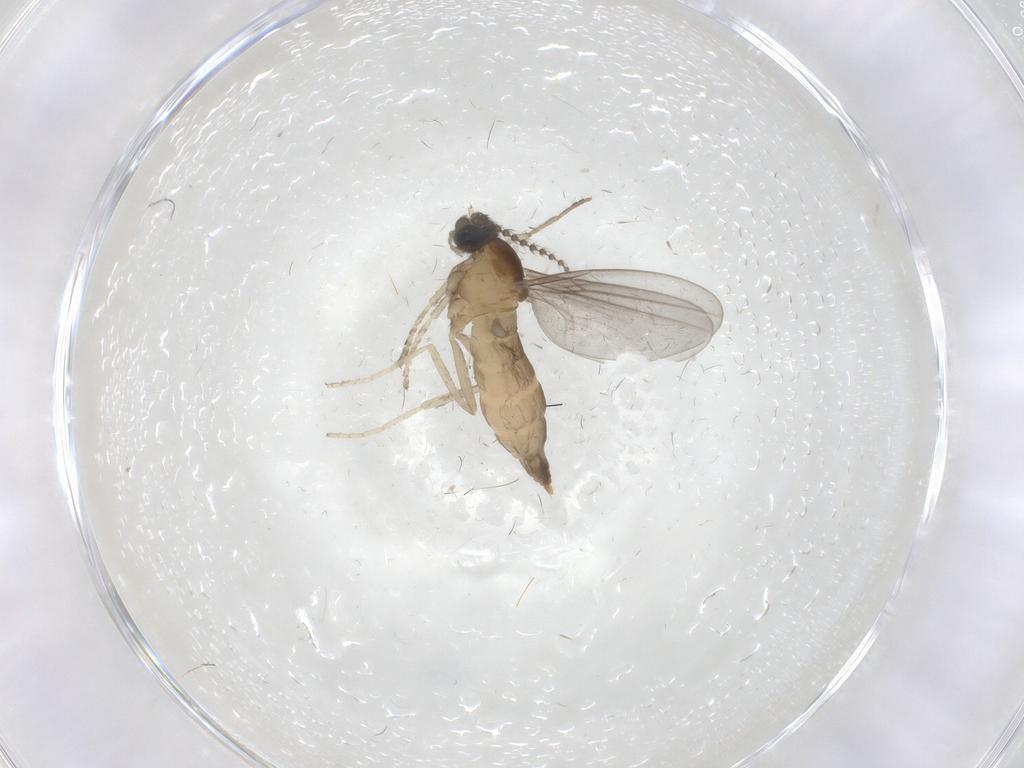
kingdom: Animalia
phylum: Arthropoda
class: Insecta
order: Diptera
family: Cecidomyiidae
